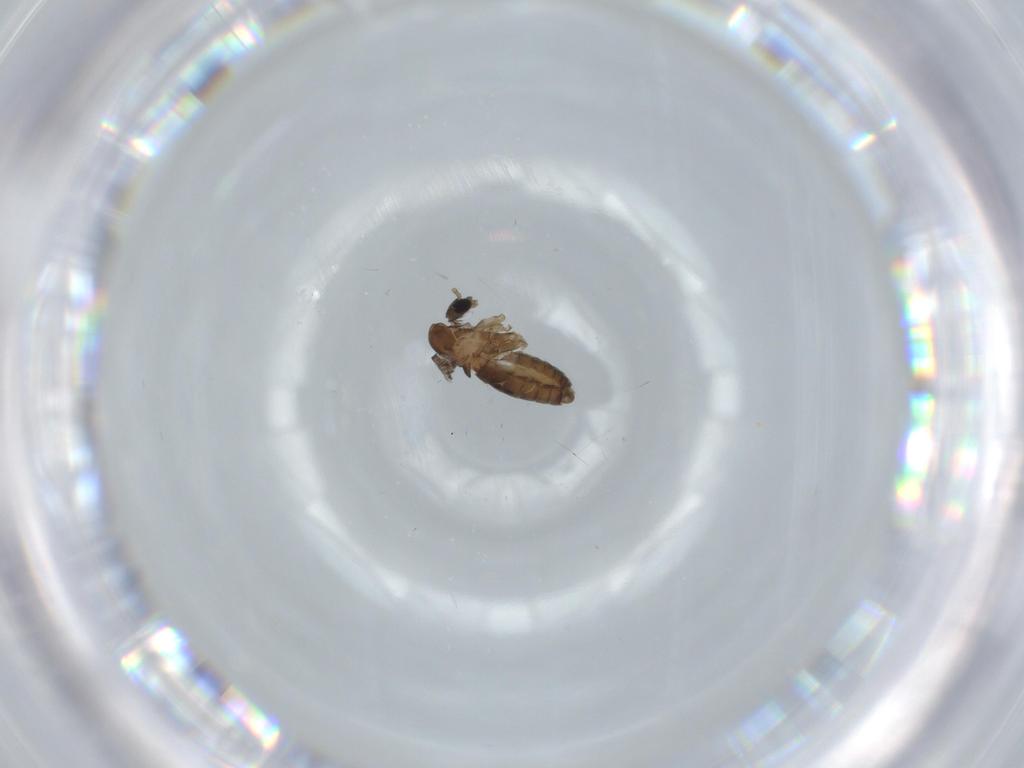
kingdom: Animalia
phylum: Arthropoda
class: Insecta
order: Diptera
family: Psychodidae
